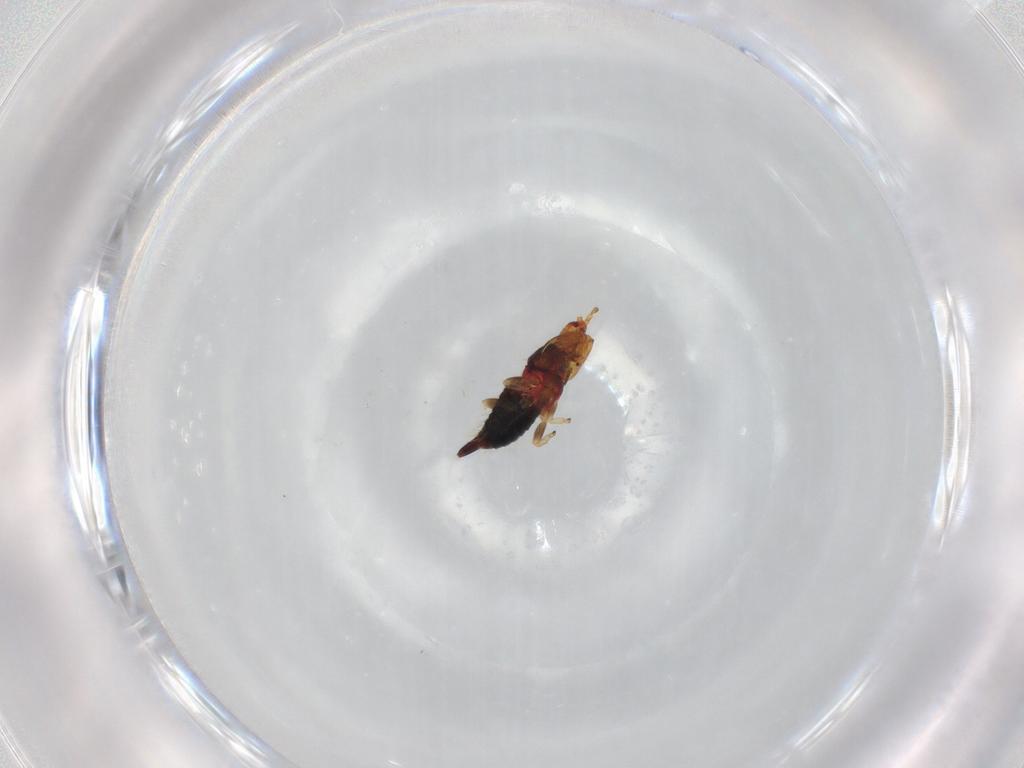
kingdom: Animalia
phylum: Arthropoda
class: Insecta
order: Thysanoptera
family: Phlaeothripidae
